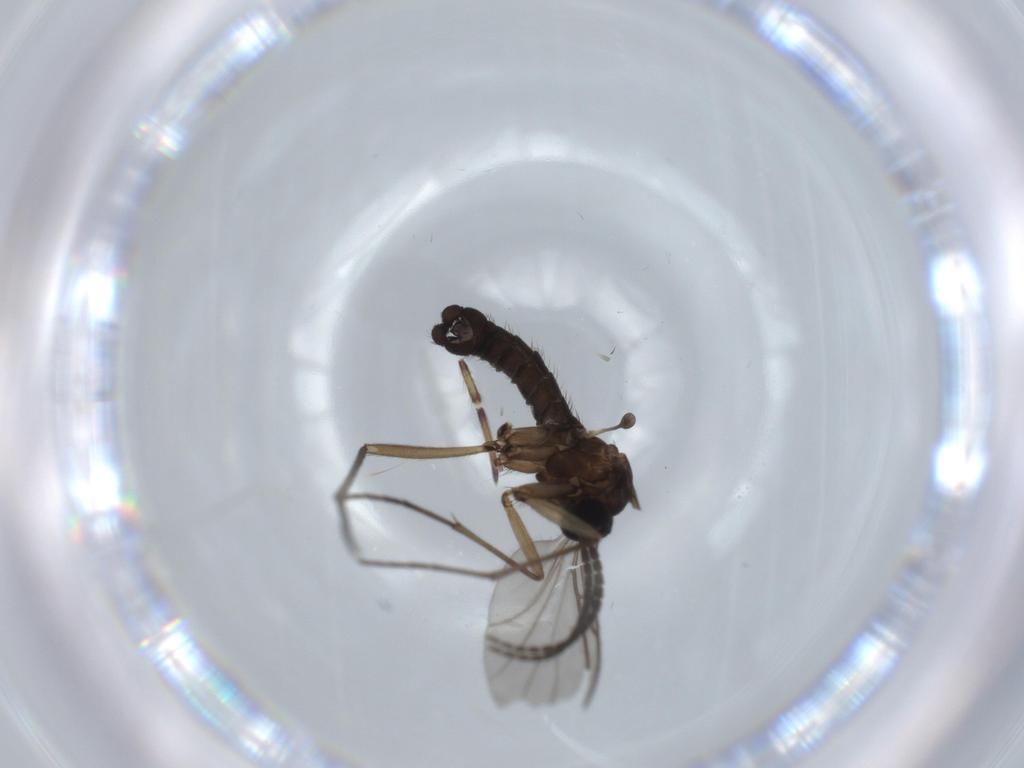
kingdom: Animalia
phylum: Arthropoda
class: Insecta
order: Diptera
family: Sciaridae
